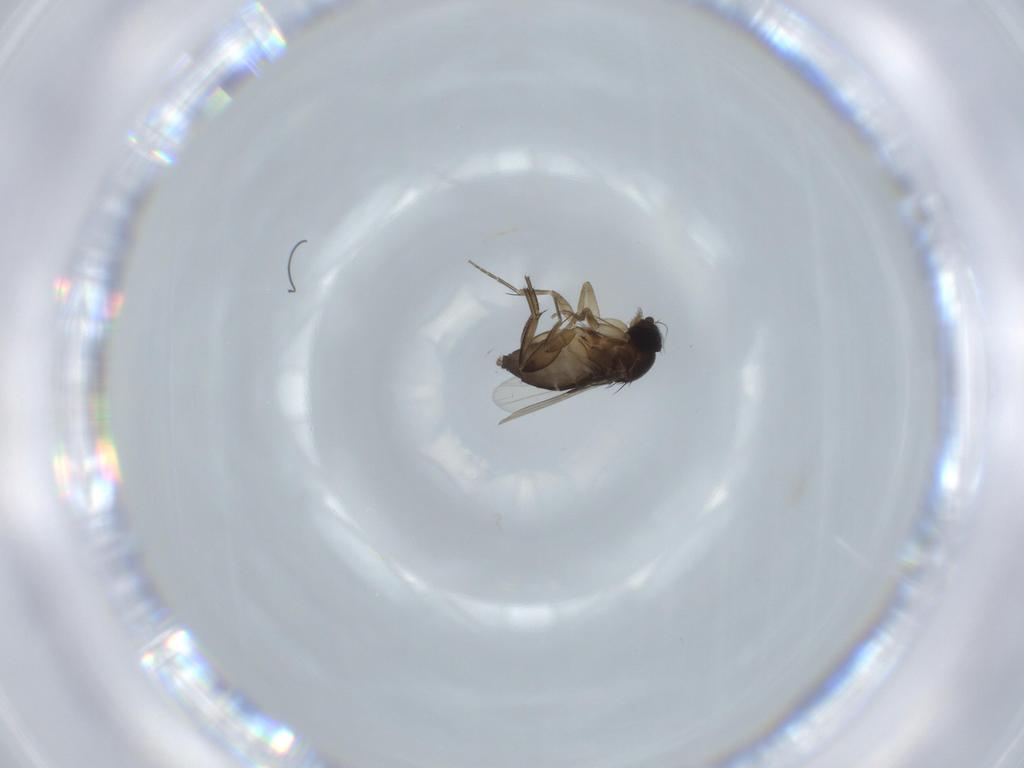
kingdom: Animalia
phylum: Arthropoda
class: Insecta
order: Diptera
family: Phoridae
